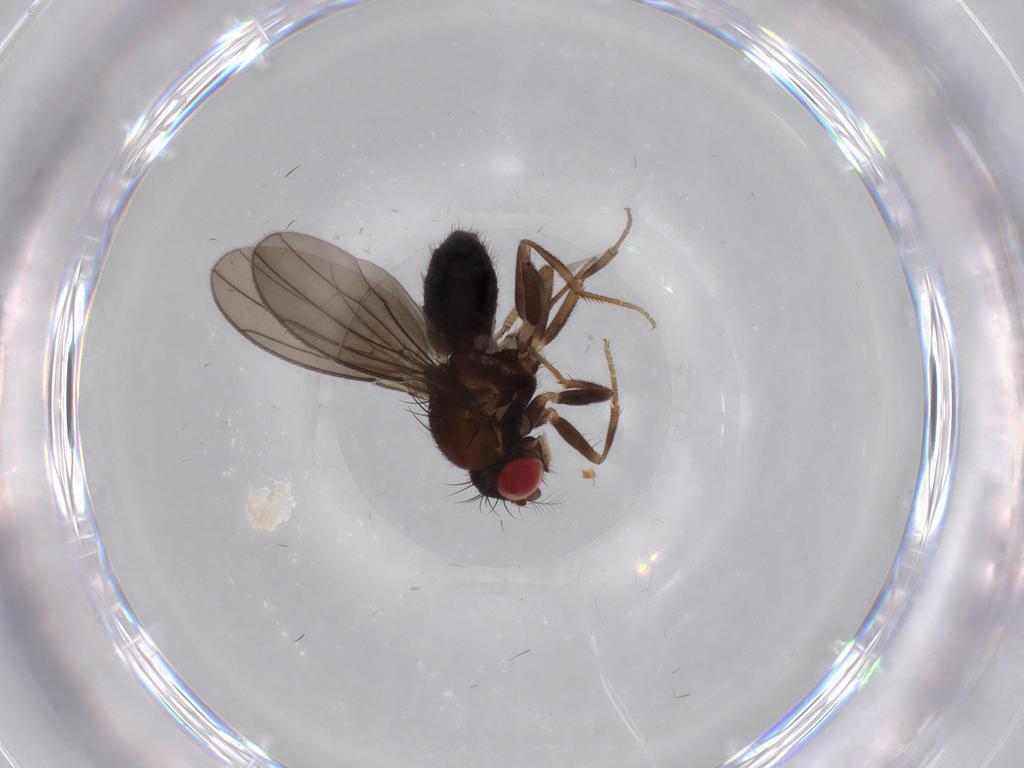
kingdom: Animalia
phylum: Arthropoda
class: Insecta
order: Diptera
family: Drosophilidae
